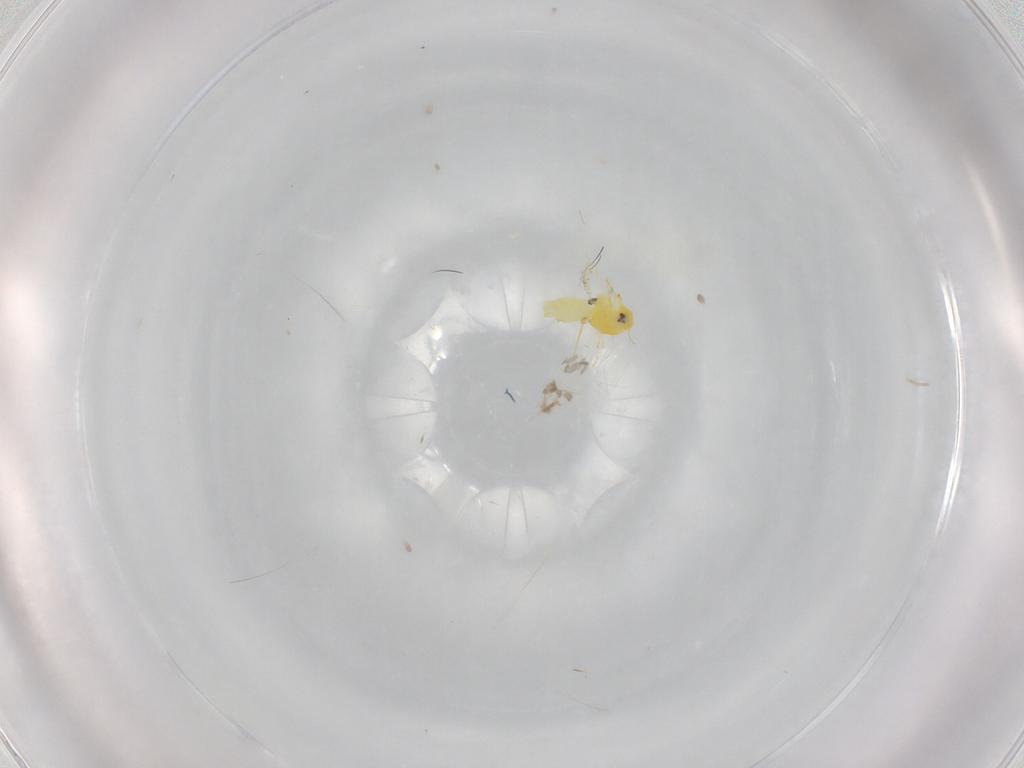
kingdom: Animalia
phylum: Arthropoda
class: Insecta
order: Hemiptera
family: Aleyrodidae
